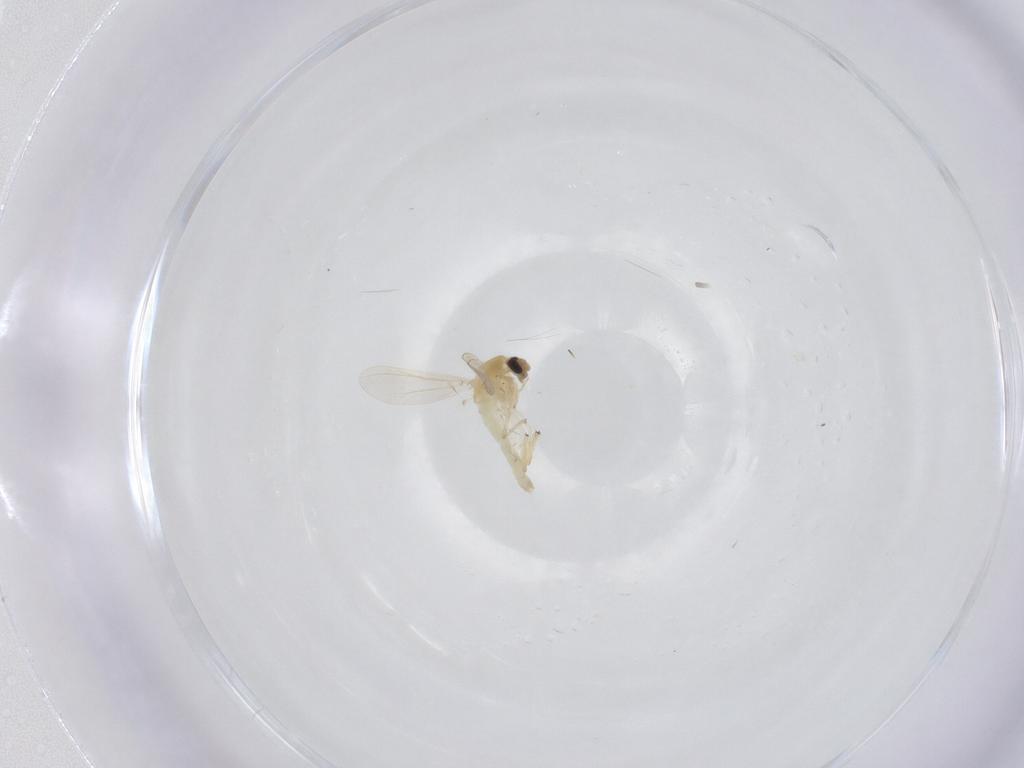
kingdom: Animalia
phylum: Arthropoda
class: Insecta
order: Diptera
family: Chironomidae
